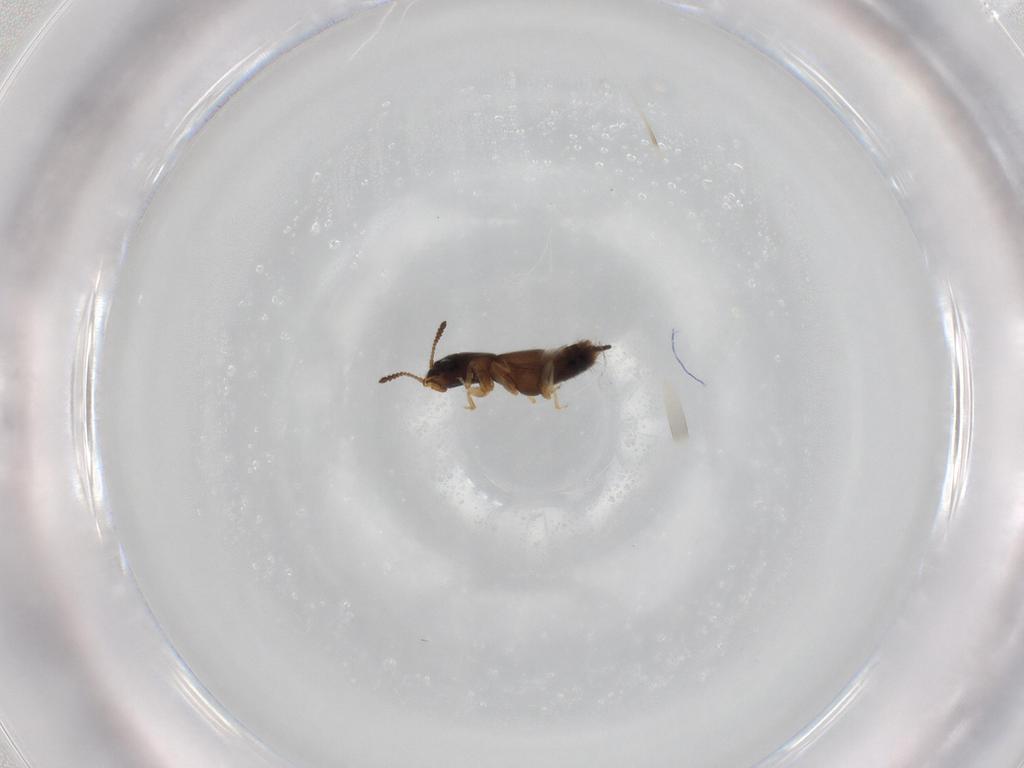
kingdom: Animalia
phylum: Arthropoda
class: Insecta
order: Coleoptera
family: Staphylinidae
